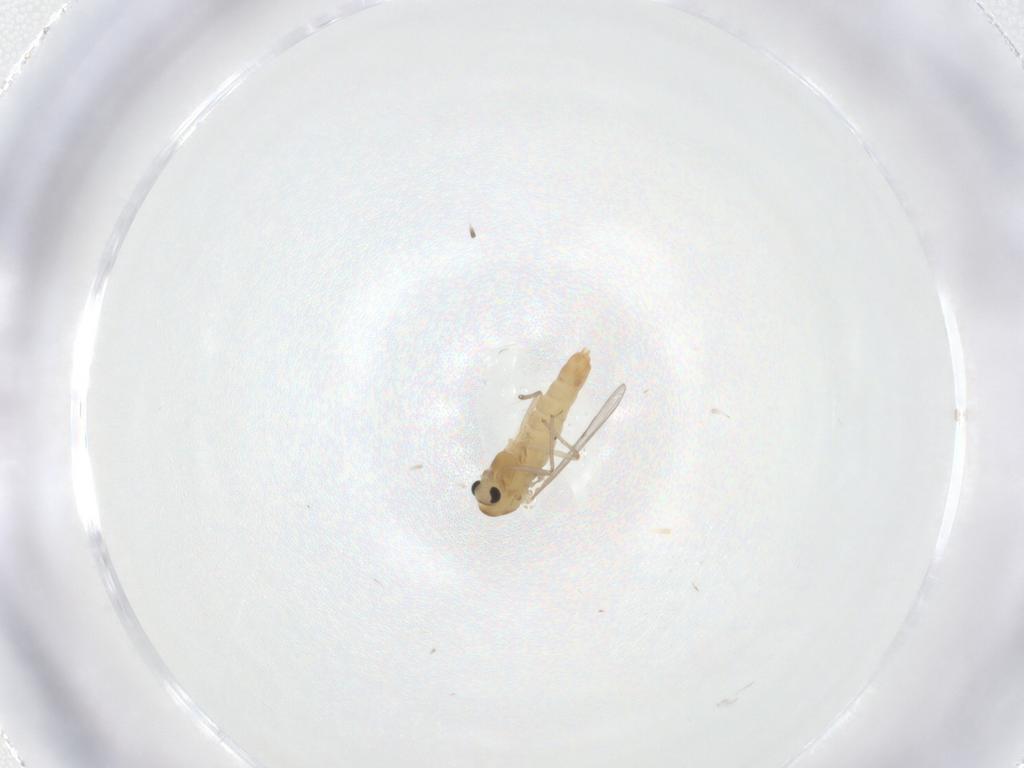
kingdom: Animalia
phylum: Arthropoda
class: Insecta
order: Diptera
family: Chironomidae
